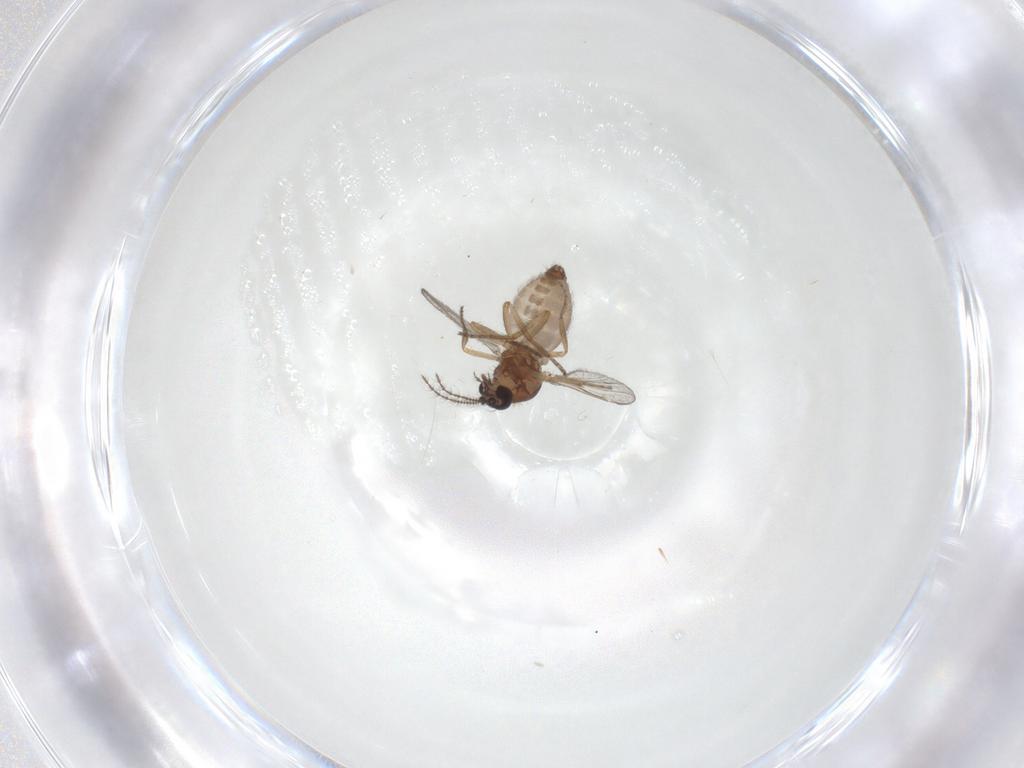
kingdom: Animalia
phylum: Arthropoda
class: Insecta
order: Diptera
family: Ceratopogonidae
